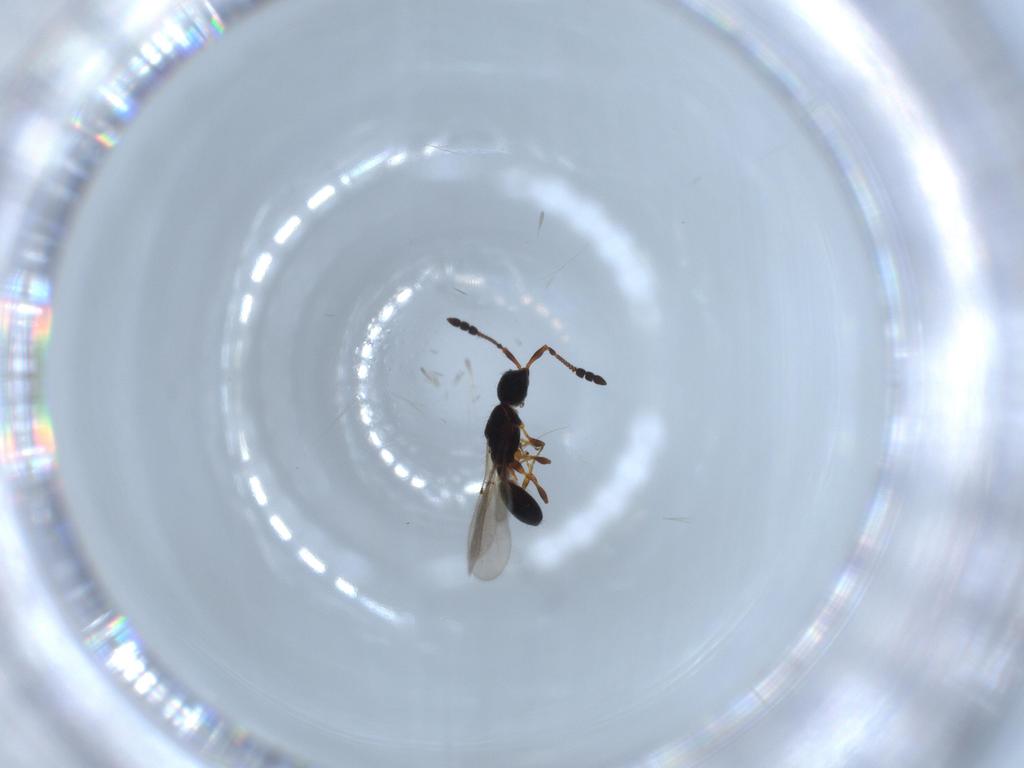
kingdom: Animalia
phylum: Arthropoda
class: Insecta
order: Hymenoptera
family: Diapriidae
